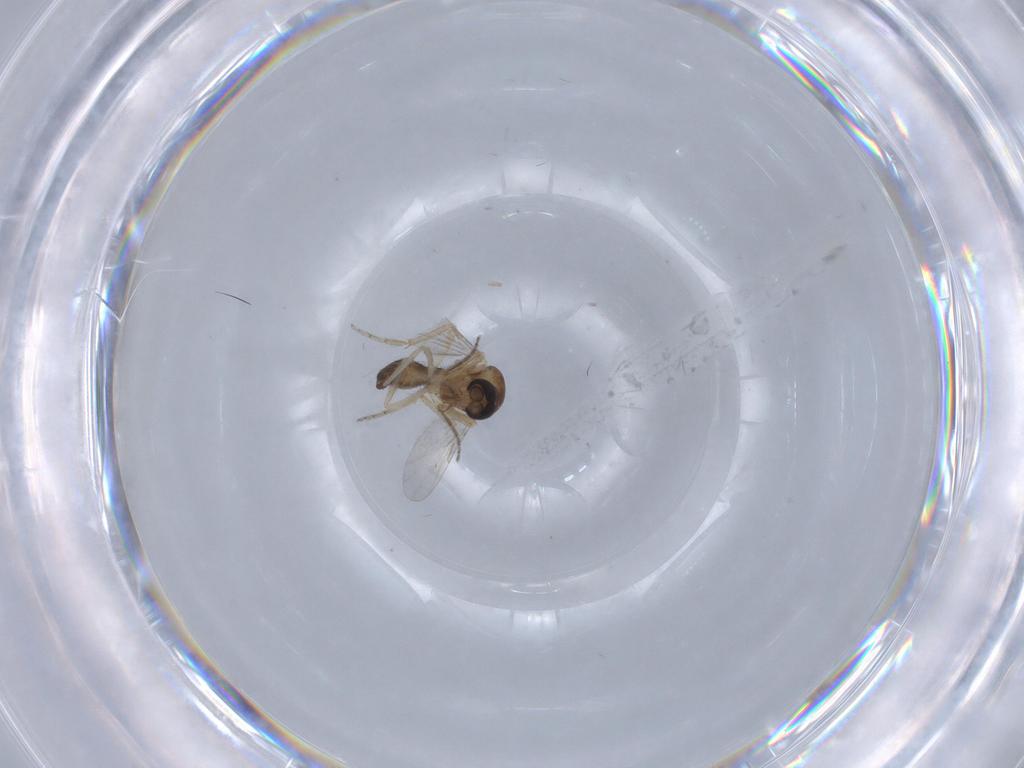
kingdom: Animalia
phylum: Arthropoda
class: Insecta
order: Diptera
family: Ceratopogonidae
